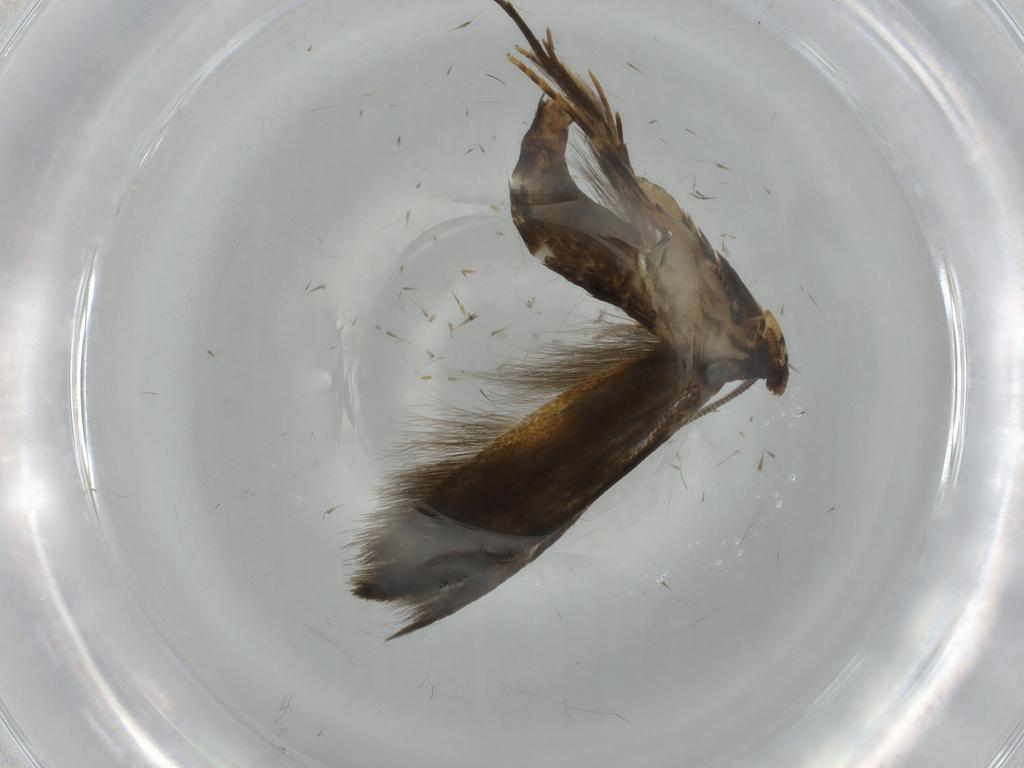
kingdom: Animalia
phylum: Arthropoda
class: Insecta
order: Lepidoptera
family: Tineidae
